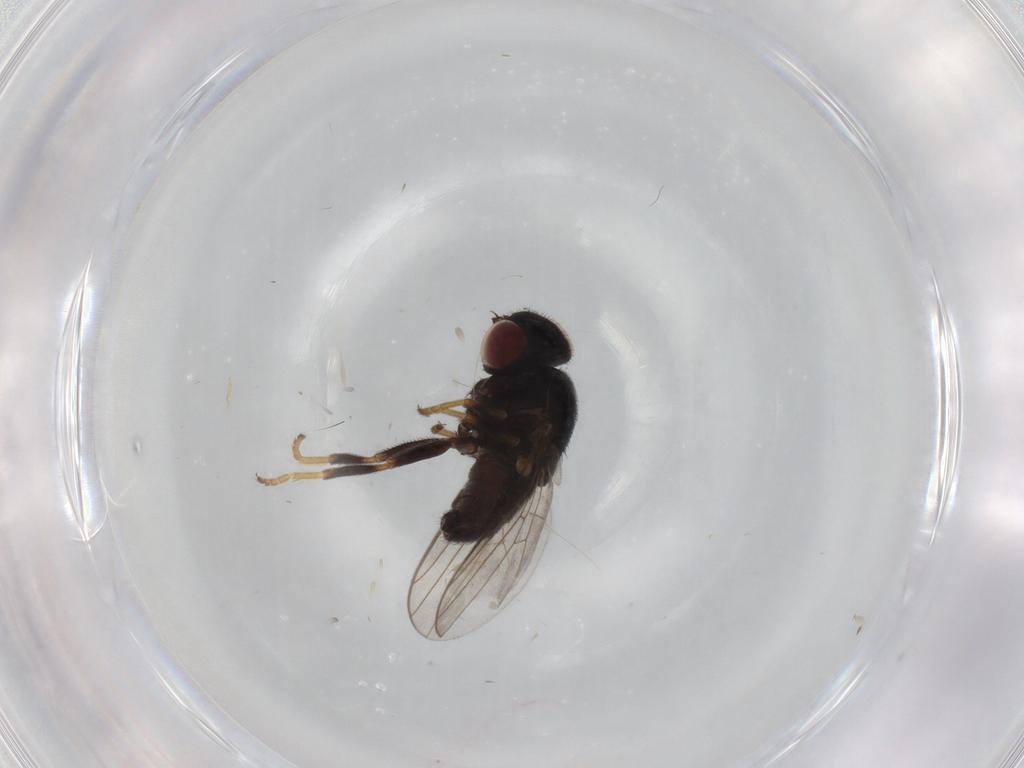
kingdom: Animalia
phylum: Arthropoda
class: Insecta
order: Diptera
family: Chloropidae
